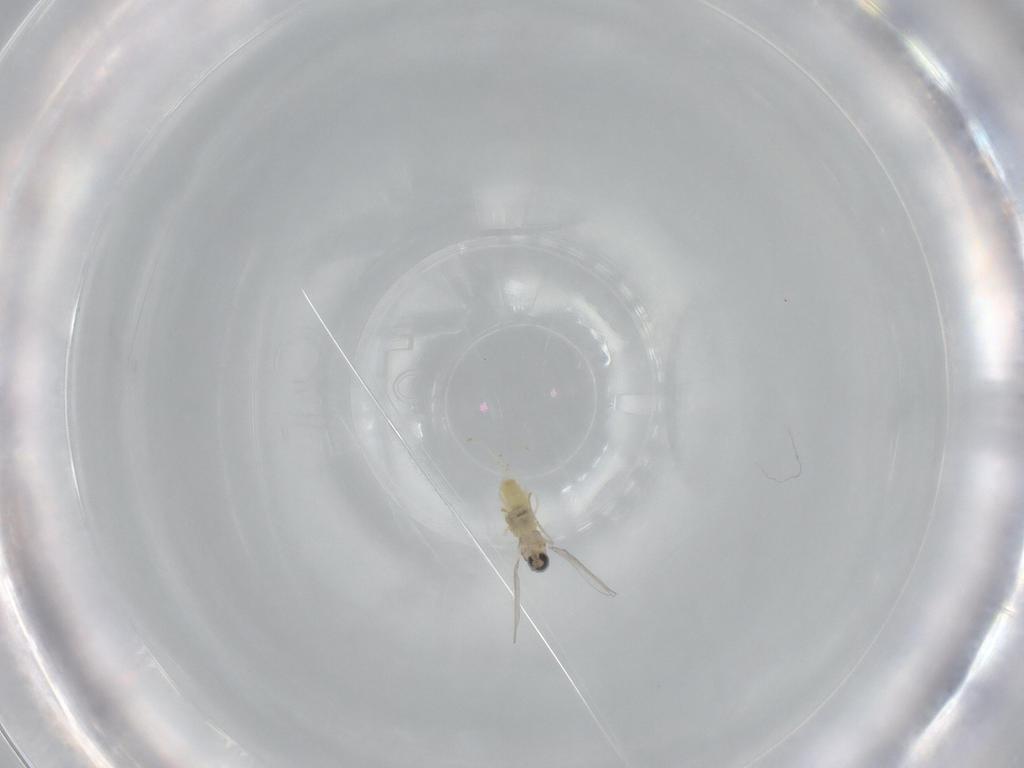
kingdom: Animalia
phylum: Arthropoda
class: Insecta
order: Diptera
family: Cecidomyiidae
